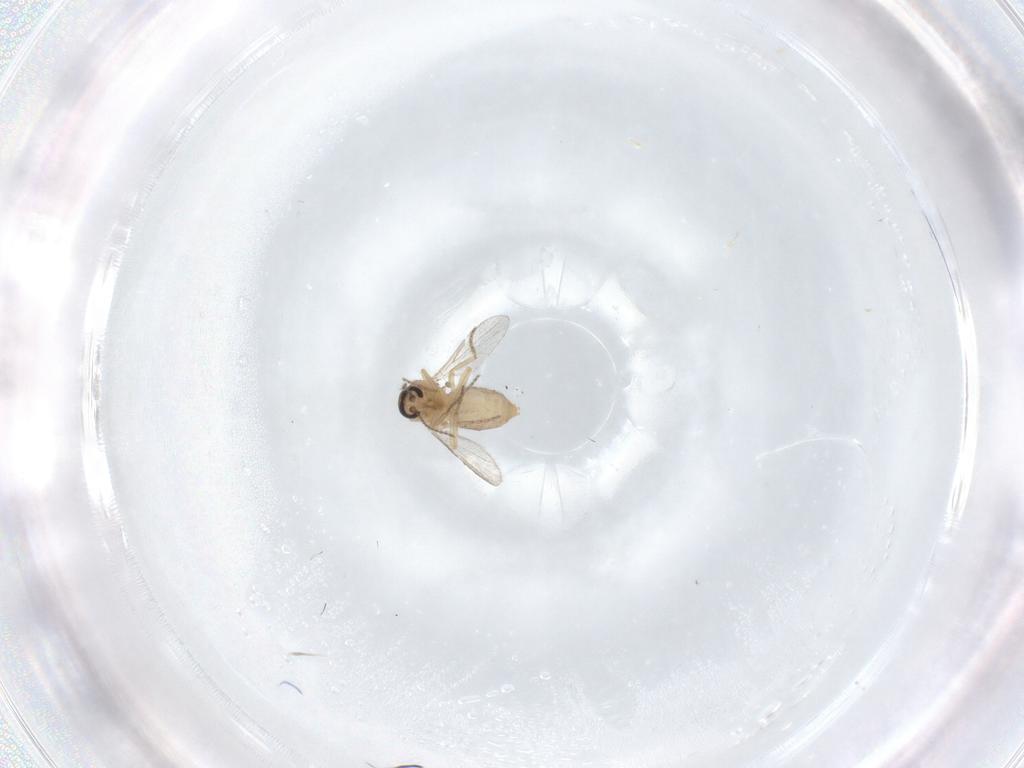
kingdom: Animalia
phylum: Arthropoda
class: Insecta
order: Diptera
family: Ceratopogonidae
